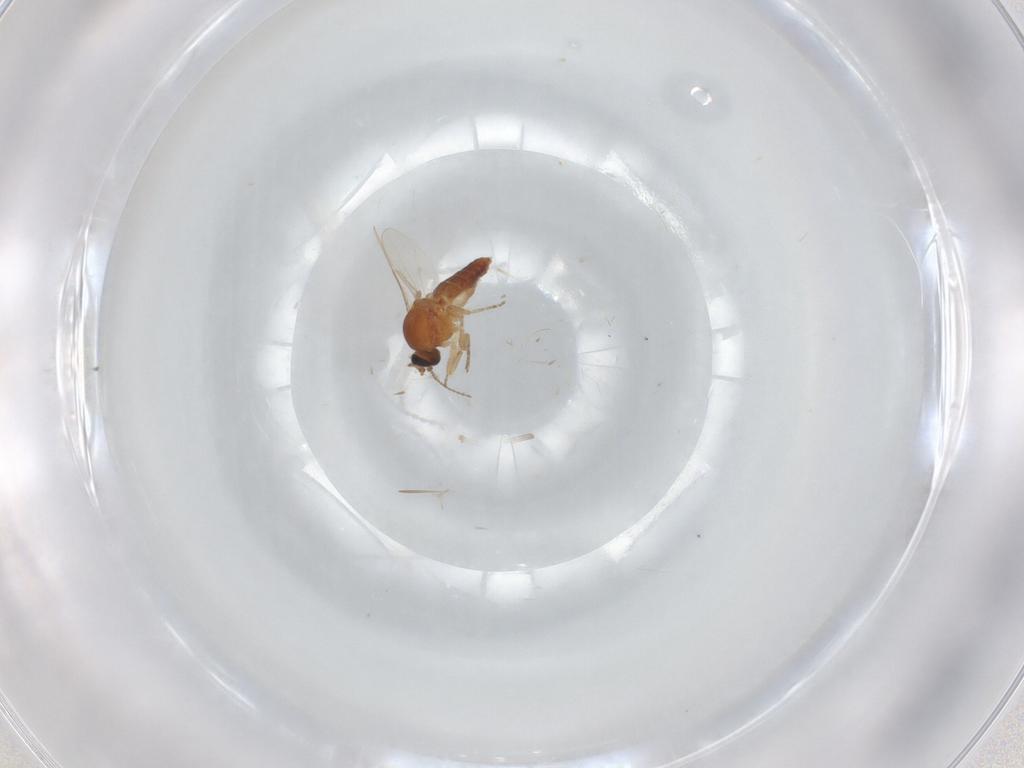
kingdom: Animalia
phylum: Arthropoda
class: Insecta
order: Diptera
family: Ceratopogonidae
